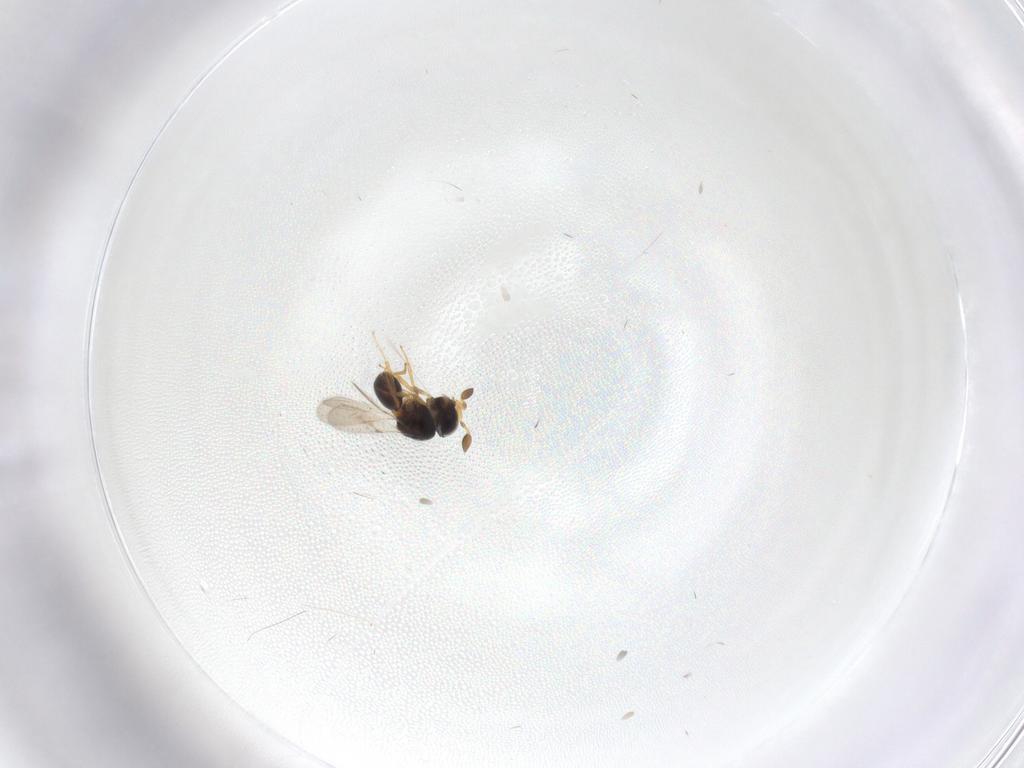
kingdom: Animalia
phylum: Arthropoda
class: Insecta
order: Hymenoptera
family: Scelionidae
